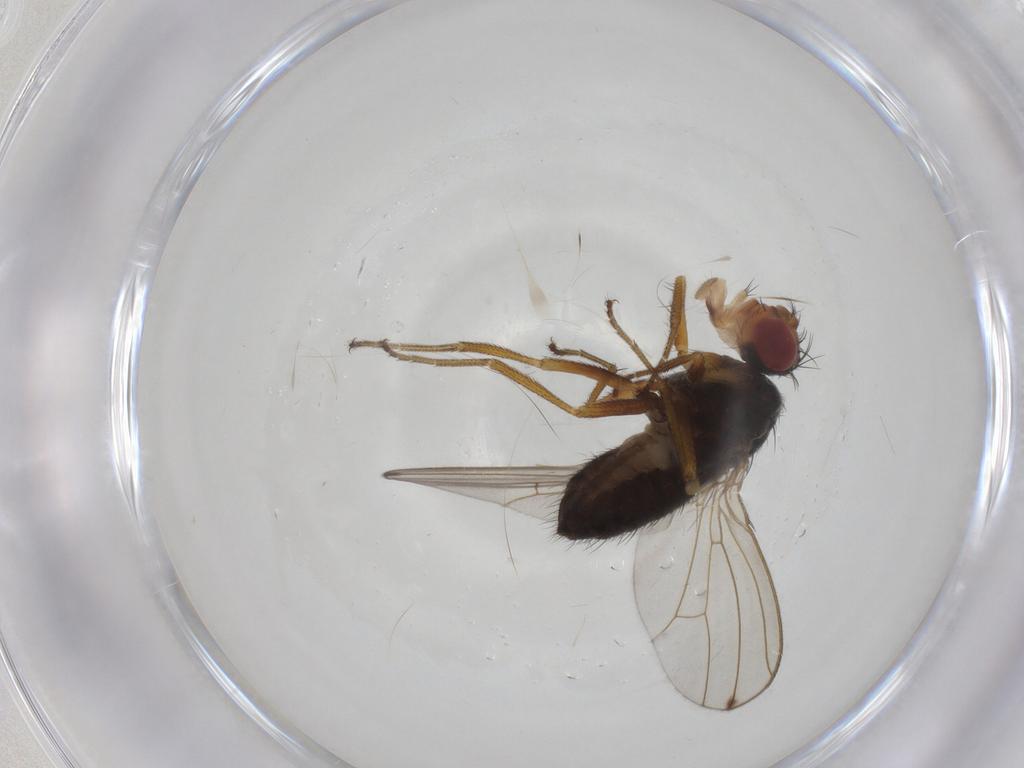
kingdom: Animalia
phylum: Arthropoda
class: Insecta
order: Diptera
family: Drosophilidae
